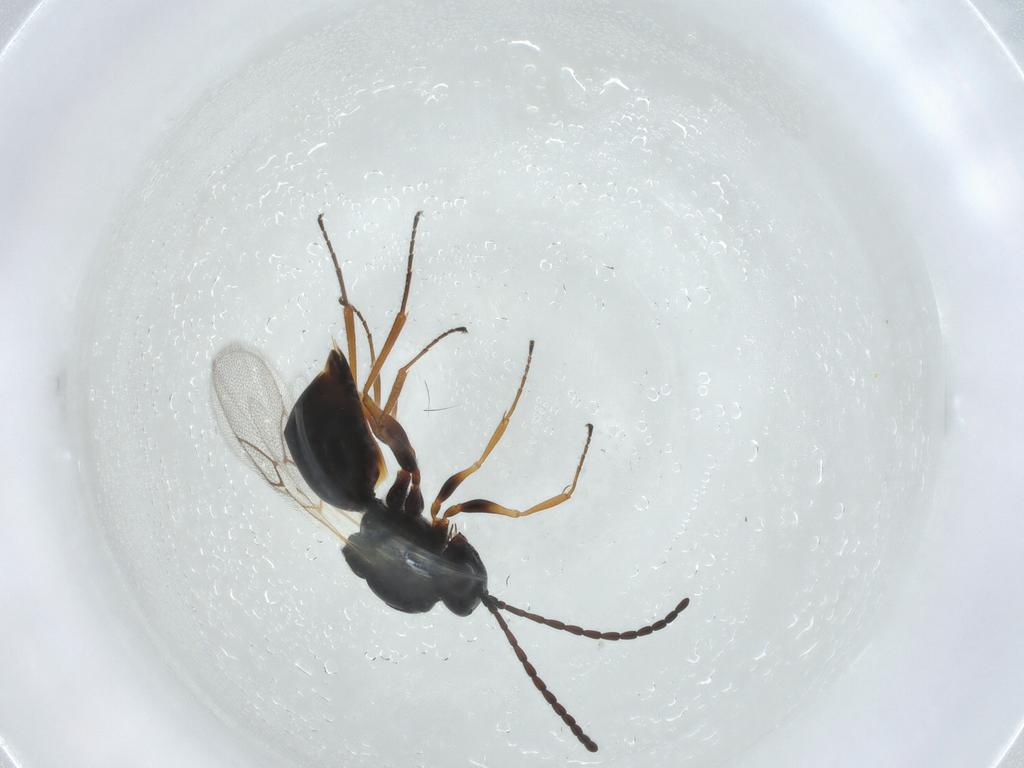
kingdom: Animalia
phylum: Arthropoda
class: Insecta
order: Hymenoptera
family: Figitidae
